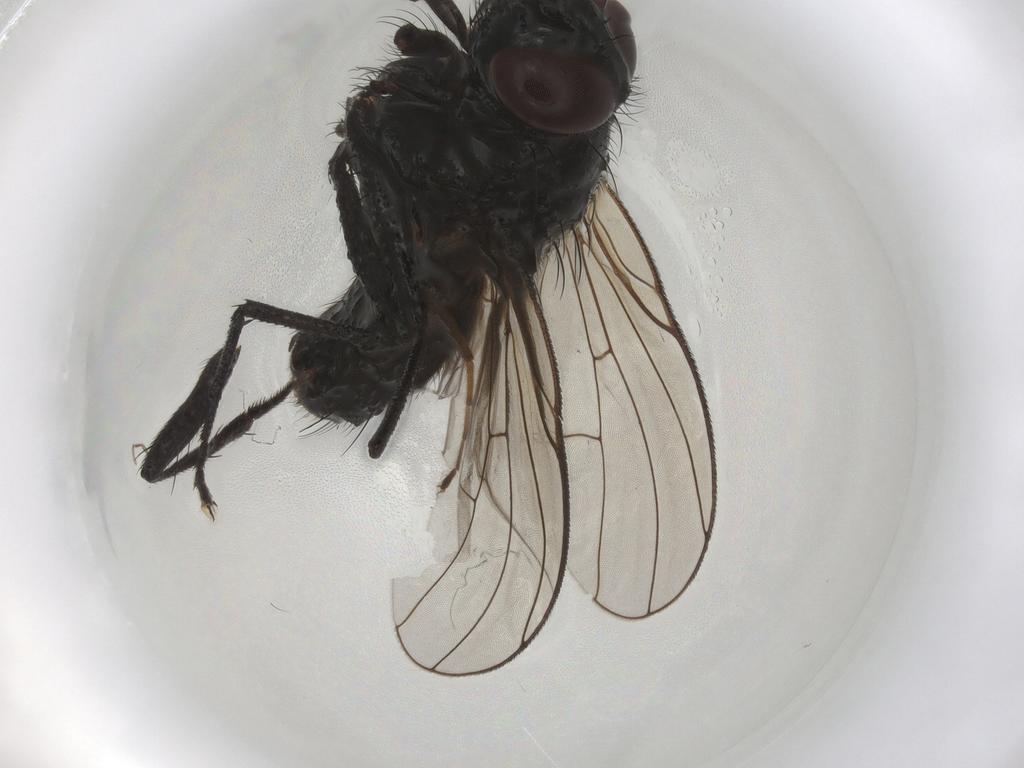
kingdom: Animalia
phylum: Arthropoda
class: Insecta
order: Diptera
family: Muscidae
